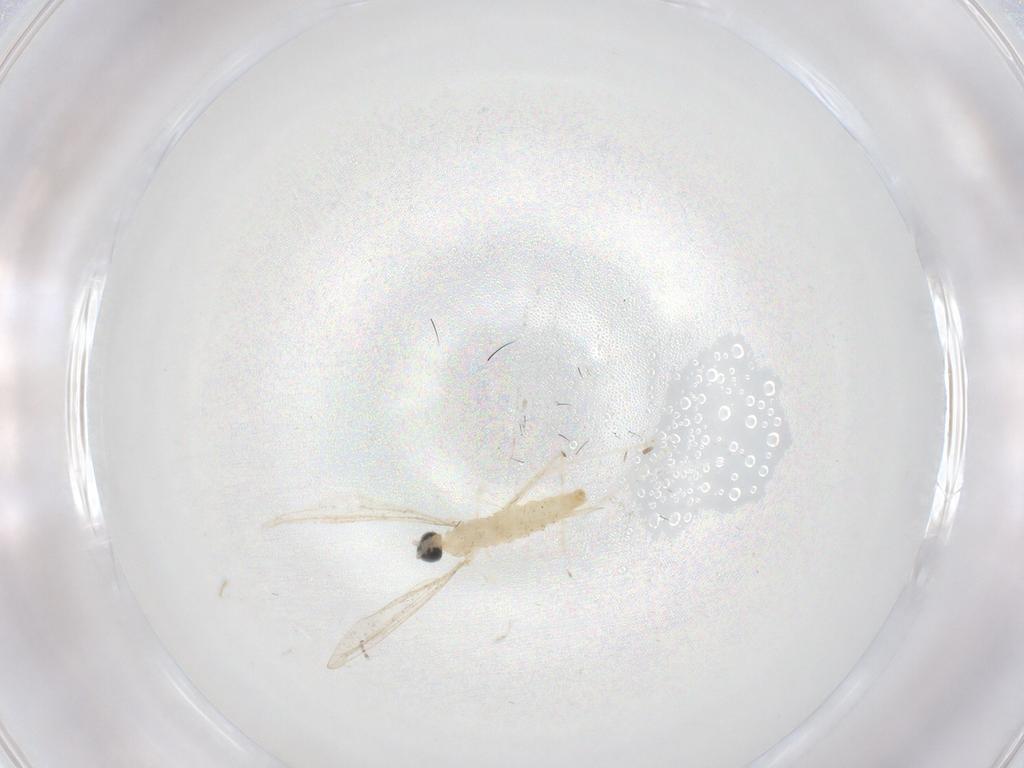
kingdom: Animalia
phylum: Arthropoda
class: Insecta
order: Diptera
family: Cecidomyiidae
